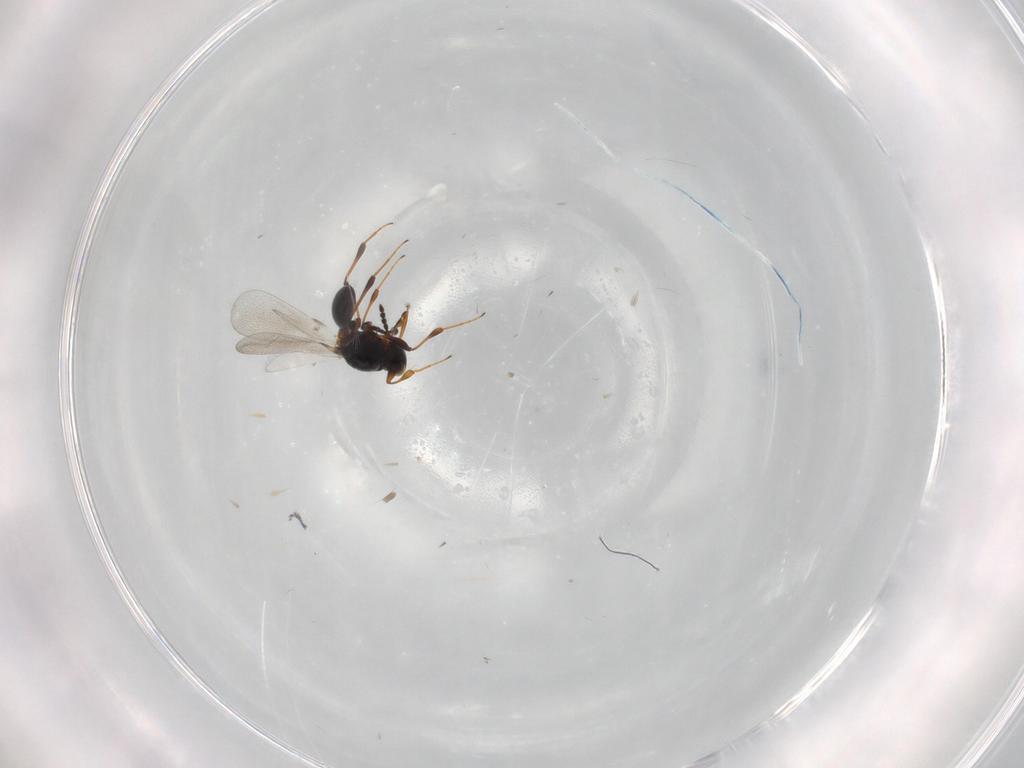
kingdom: Animalia
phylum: Arthropoda
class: Insecta
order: Hymenoptera
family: Platygastridae
